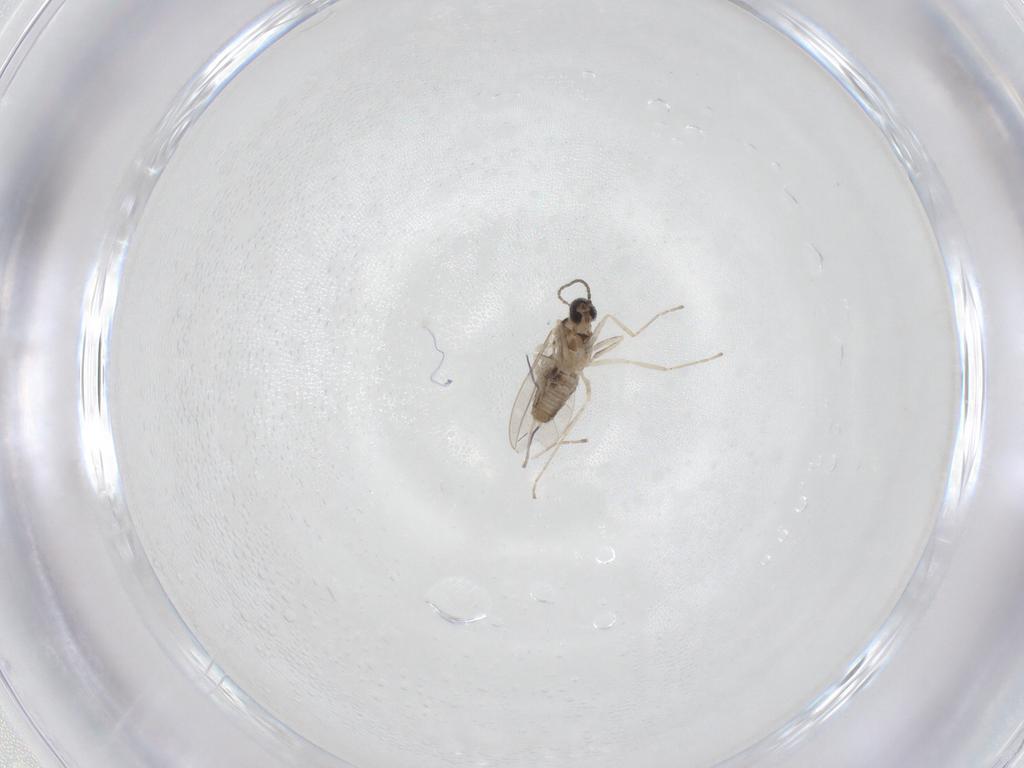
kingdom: Animalia
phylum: Arthropoda
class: Insecta
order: Diptera
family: Cecidomyiidae
